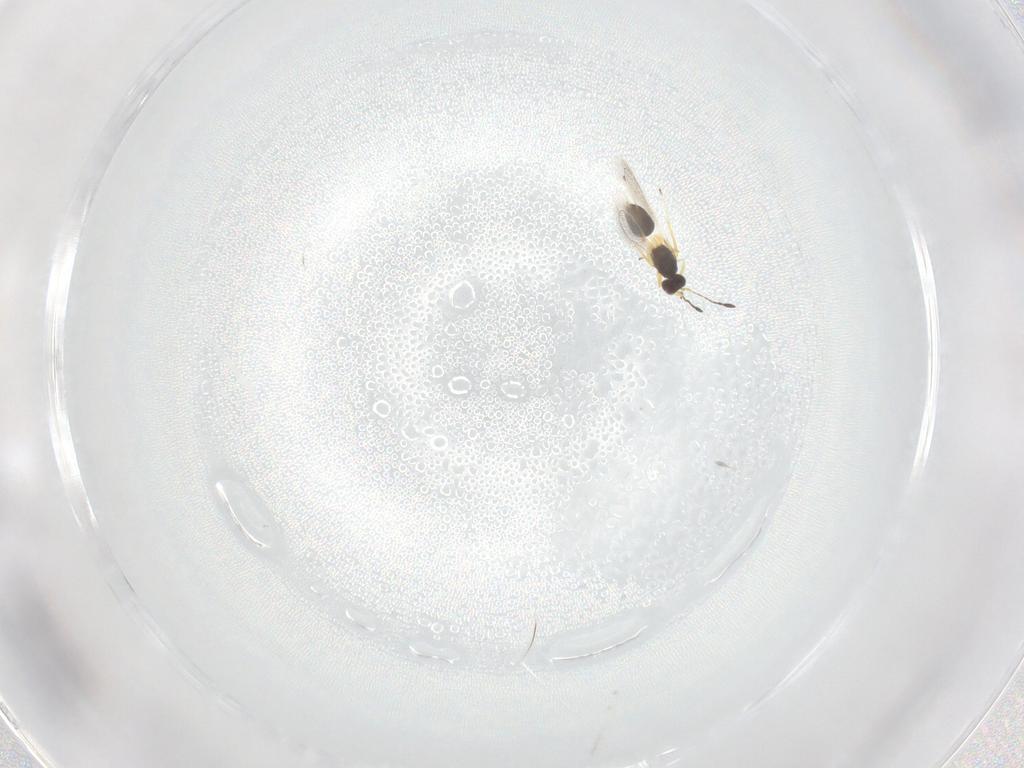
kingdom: Animalia
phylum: Arthropoda
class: Insecta
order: Hymenoptera
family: Mymaridae
